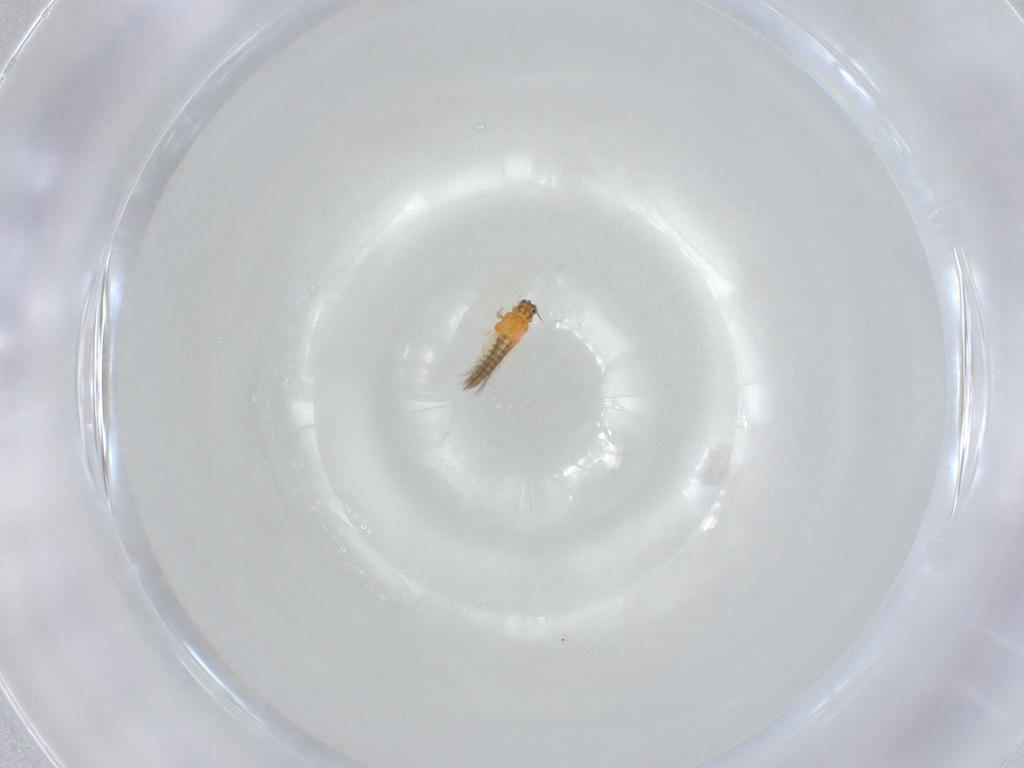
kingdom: Animalia
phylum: Arthropoda
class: Insecta
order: Thysanoptera
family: Thripidae
